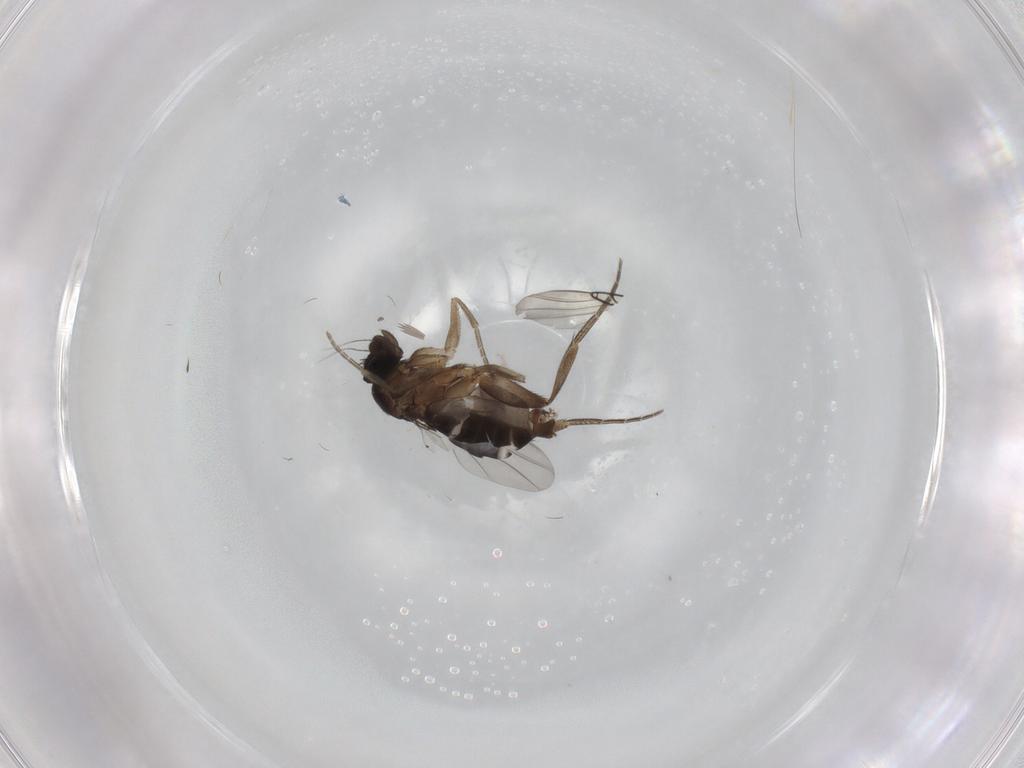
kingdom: Animalia
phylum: Arthropoda
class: Insecta
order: Diptera
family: Phoridae
